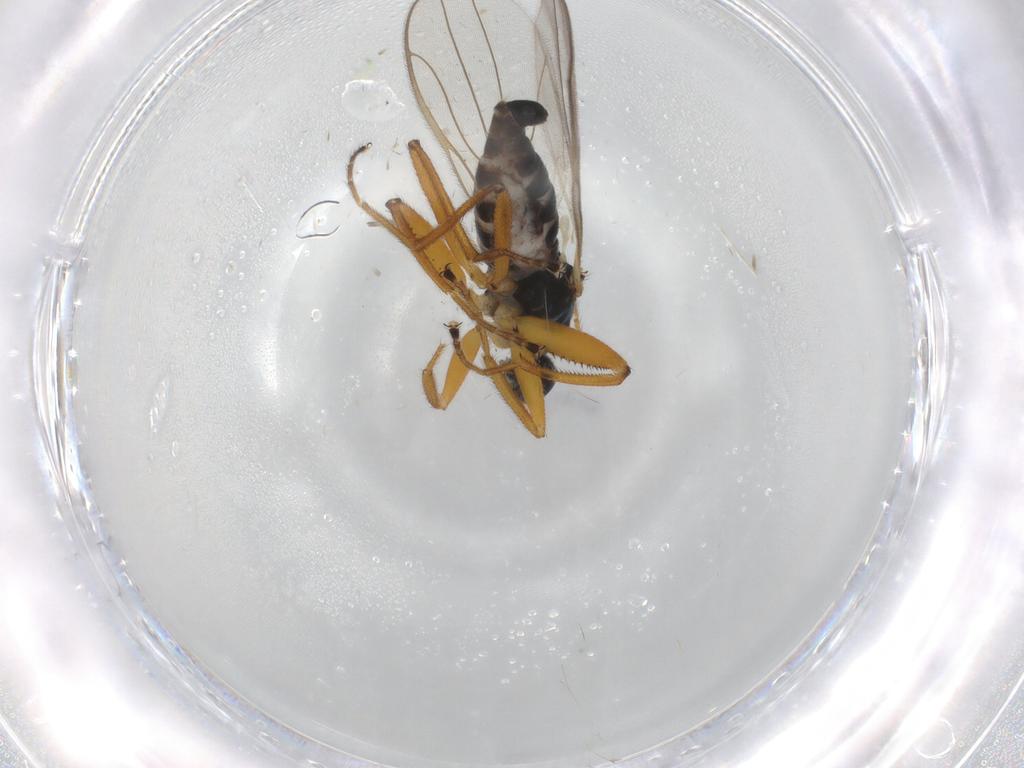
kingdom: Animalia
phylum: Arthropoda
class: Insecta
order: Diptera
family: Hybotidae
